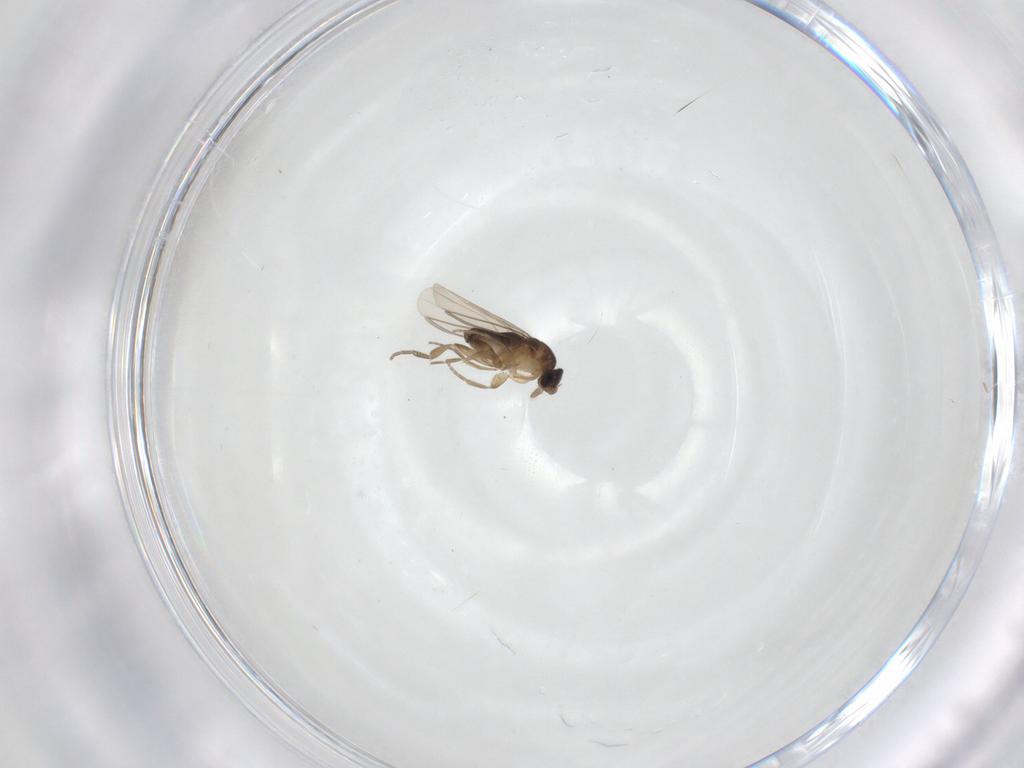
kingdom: Animalia
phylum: Arthropoda
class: Insecta
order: Diptera
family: Phoridae
